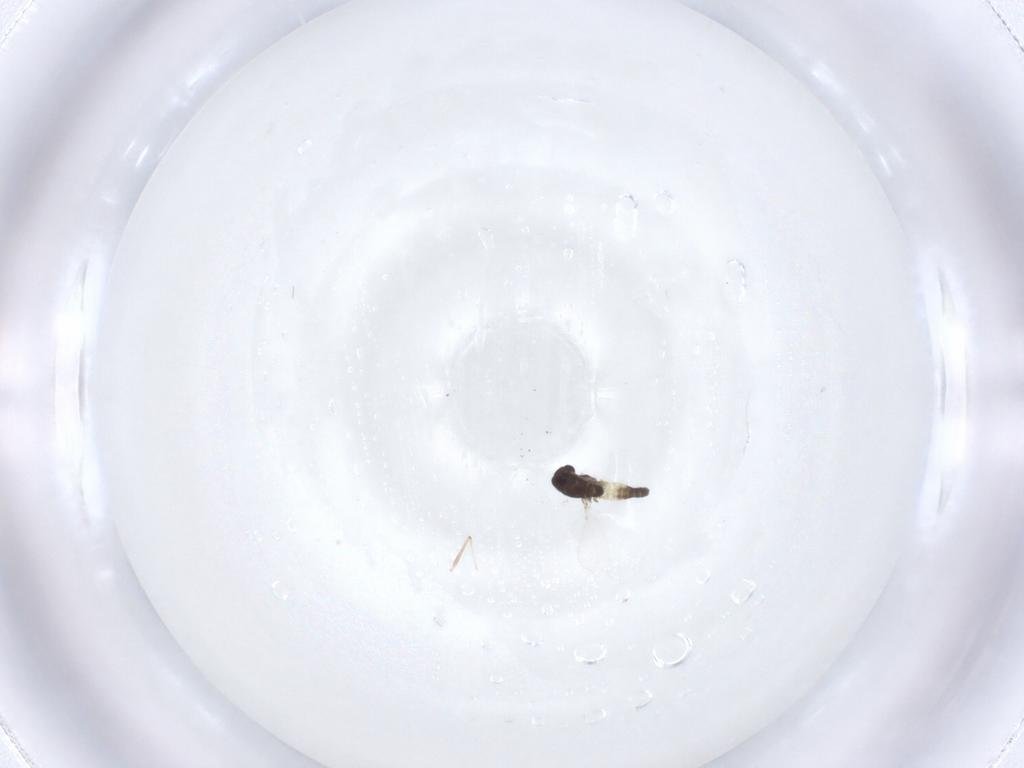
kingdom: Animalia
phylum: Arthropoda
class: Insecta
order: Diptera
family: Chironomidae
